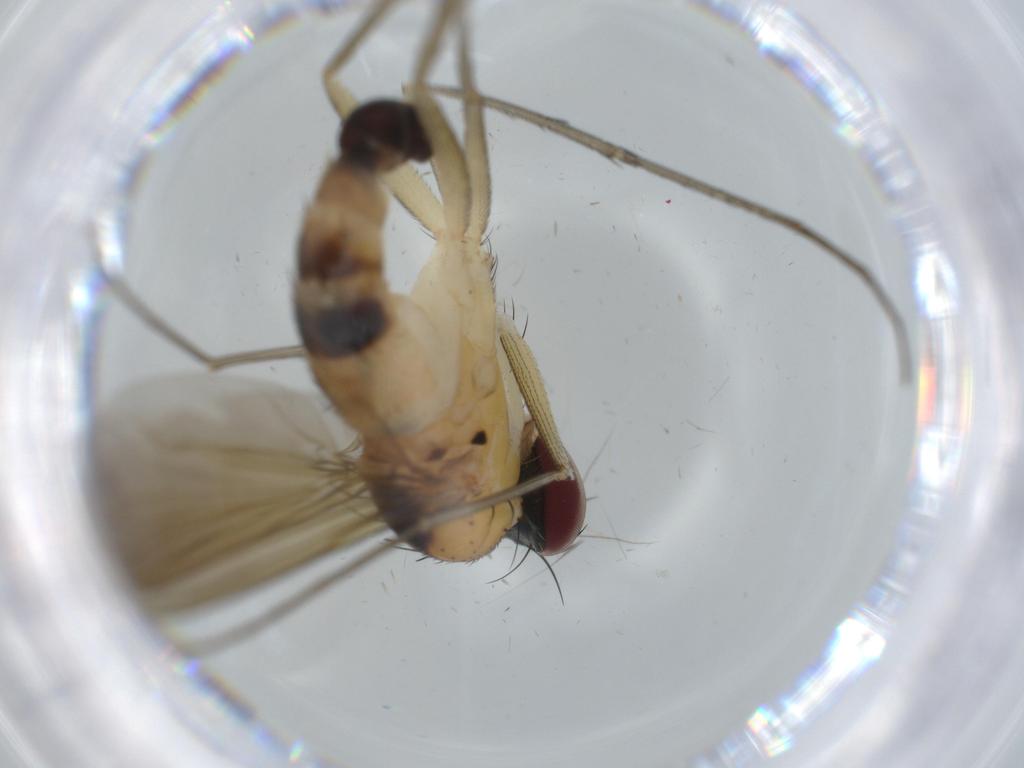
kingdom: Animalia
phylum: Arthropoda
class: Insecta
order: Diptera
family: Dolichopodidae
